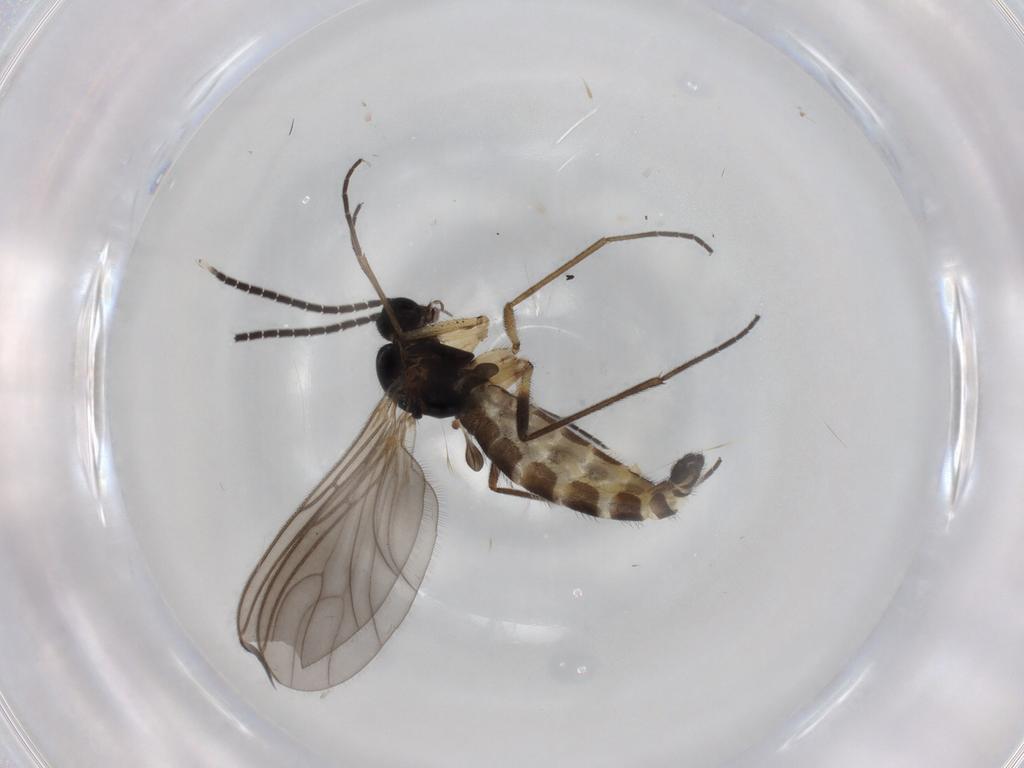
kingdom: Animalia
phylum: Arthropoda
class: Insecta
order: Diptera
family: Sciaridae
